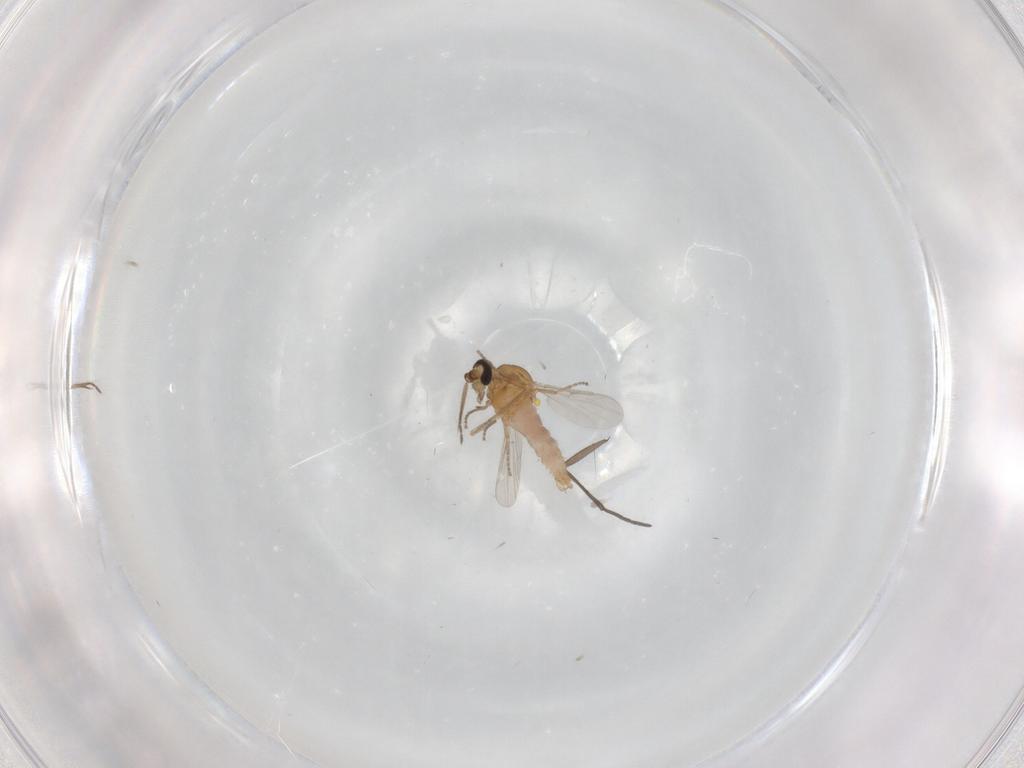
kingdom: Animalia
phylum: Arthropoda
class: Insecta
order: Diptera
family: Ceratopogonidae
